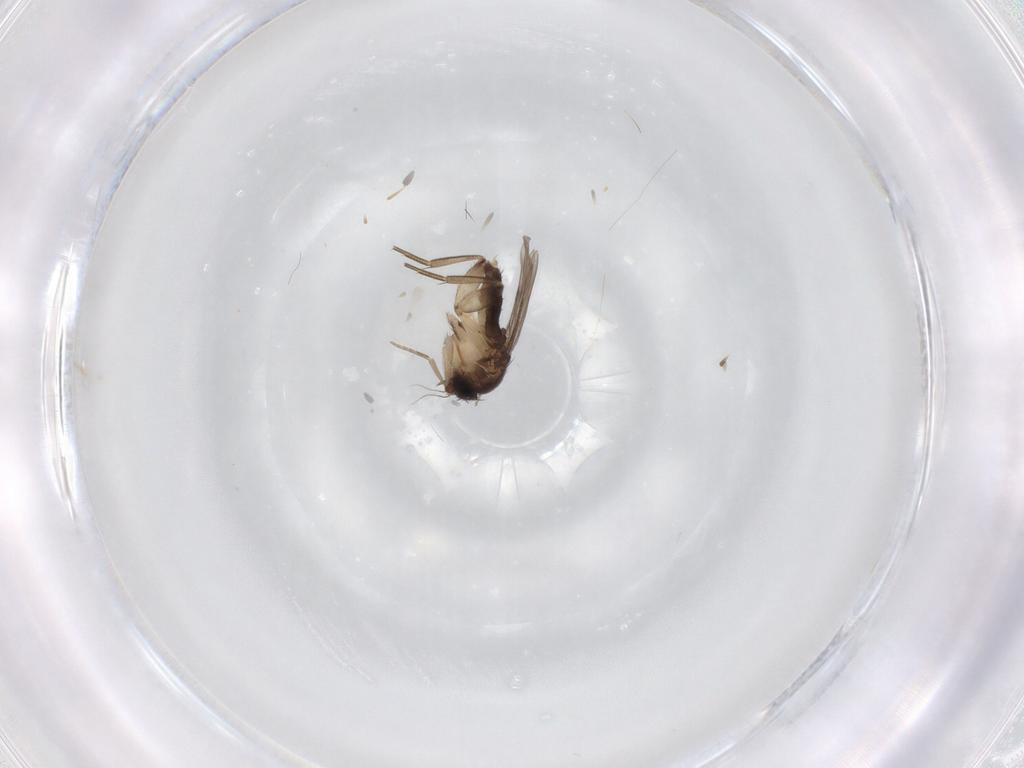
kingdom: Animalia
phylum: Arthropoda
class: Insecta
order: Diptera
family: Phoridae
